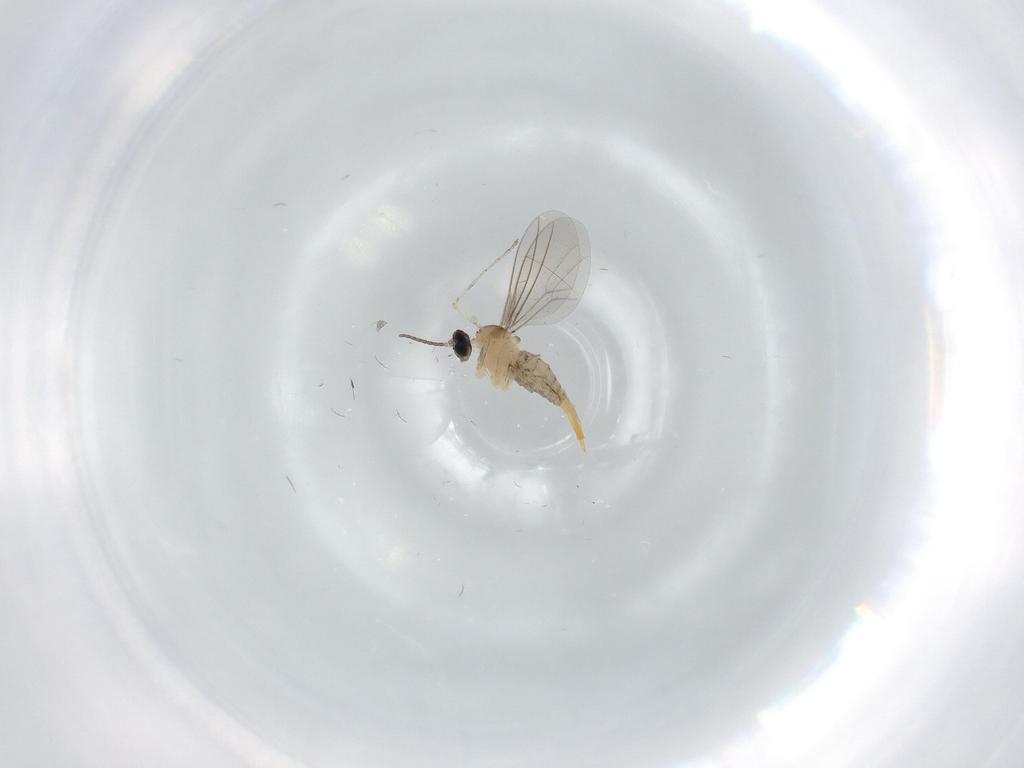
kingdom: Animalia
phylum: Arthropoda
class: Insecta
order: Diptera
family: Cecidomyiidae
